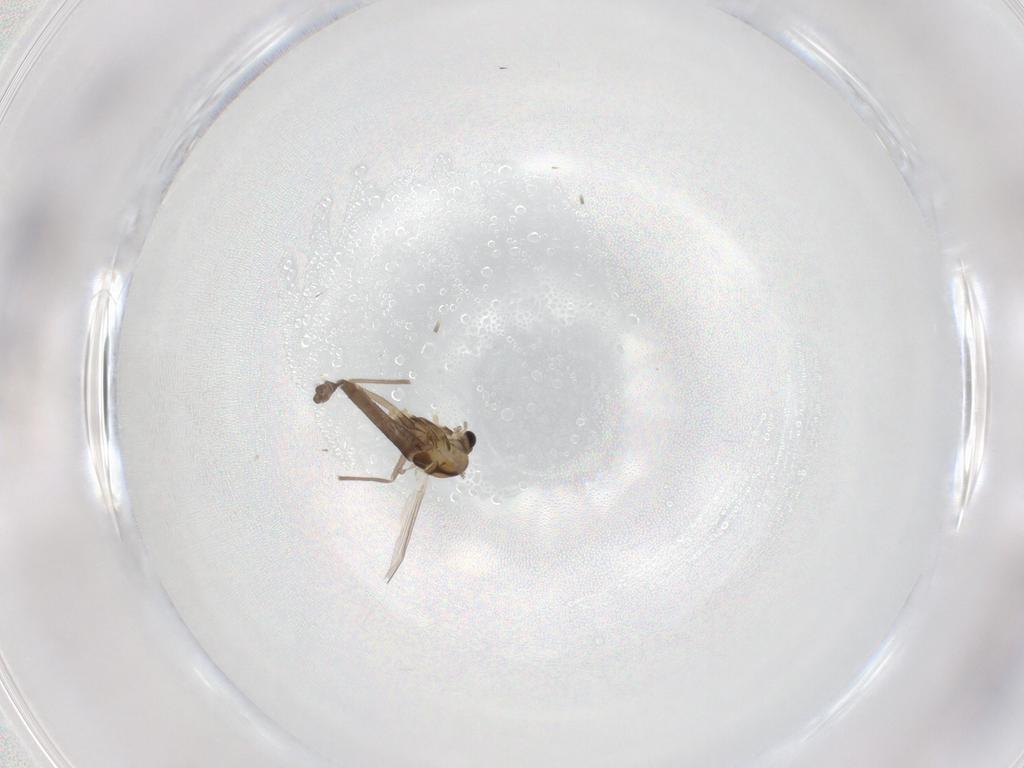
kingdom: Animalia
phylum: Arthropoda
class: Insecta
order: Diptera
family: Chironomidae
